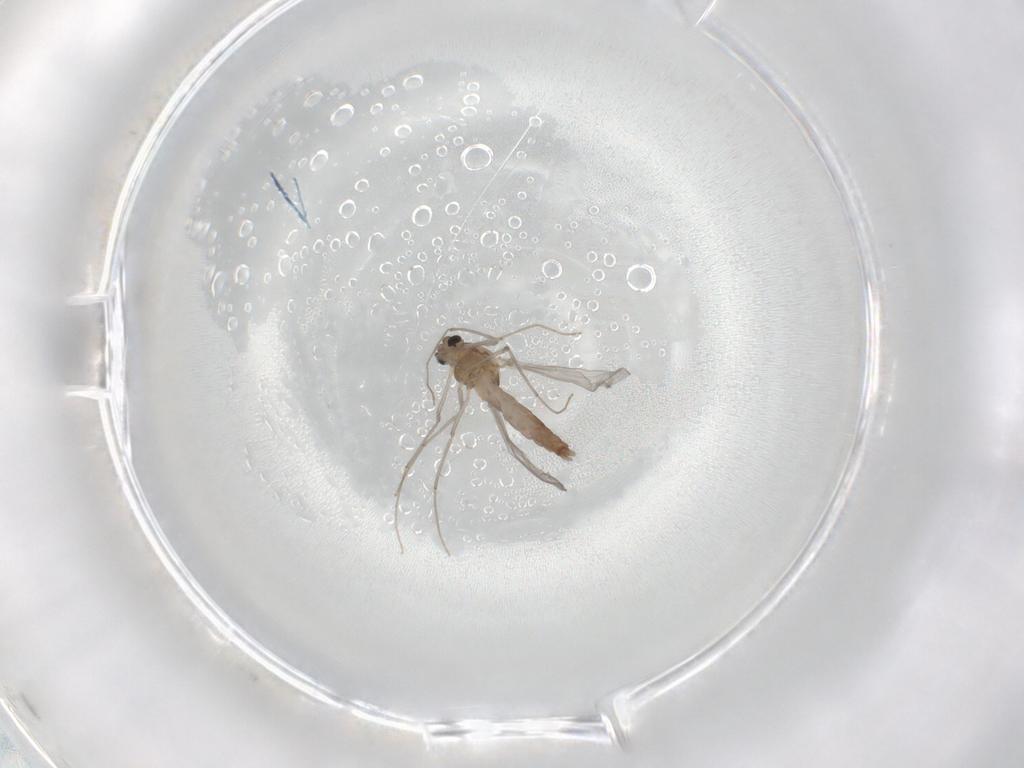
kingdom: Animalia
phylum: Arthropoda
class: Insecta
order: Diptera
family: Chironomidae
